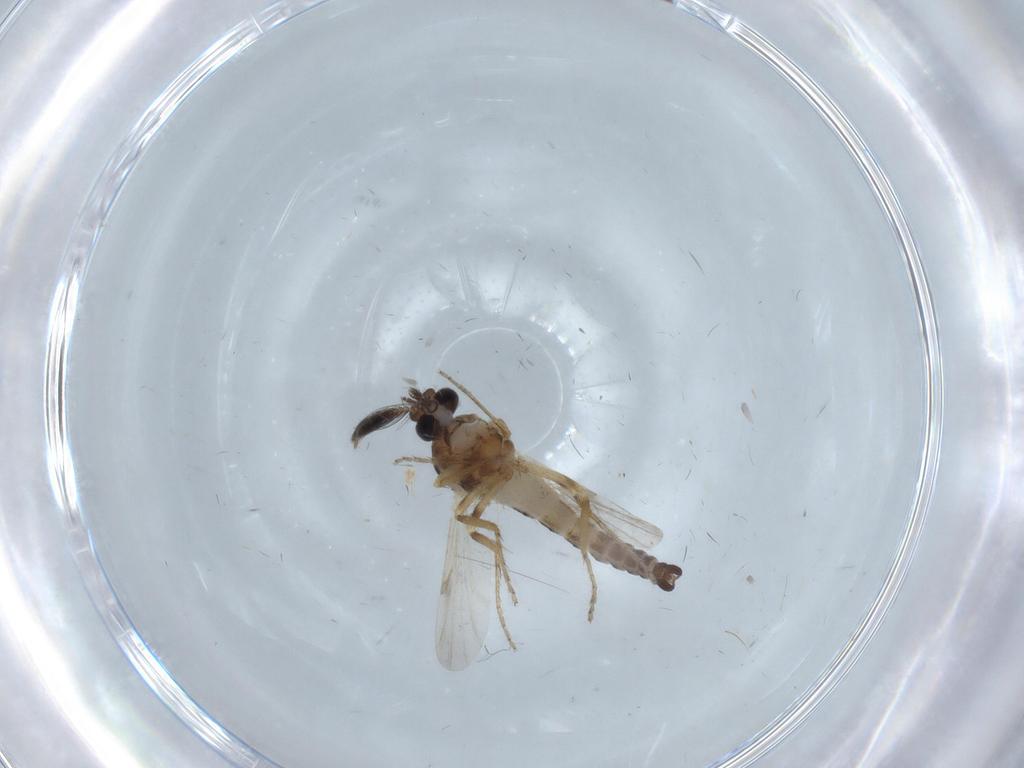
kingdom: Animalia
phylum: Arthropoda
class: Insecta
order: Diptera
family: Ceratopogonidae
